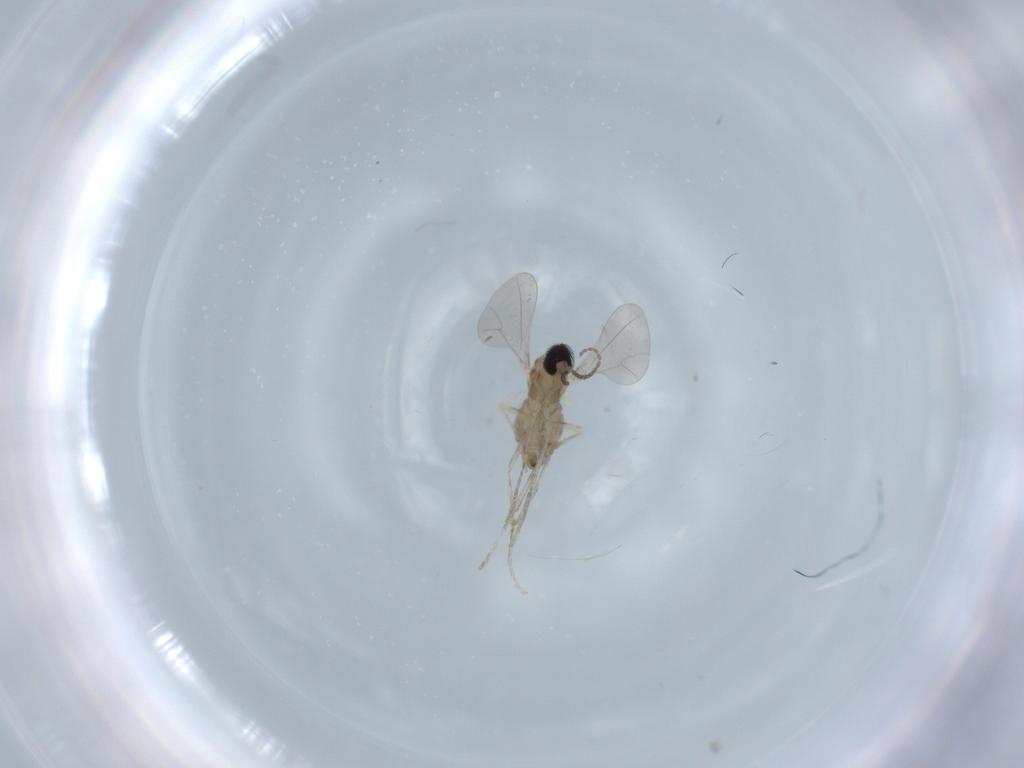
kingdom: Animalia
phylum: Arthropoda
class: Insecta
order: Diptera
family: Cecidomyiidae
